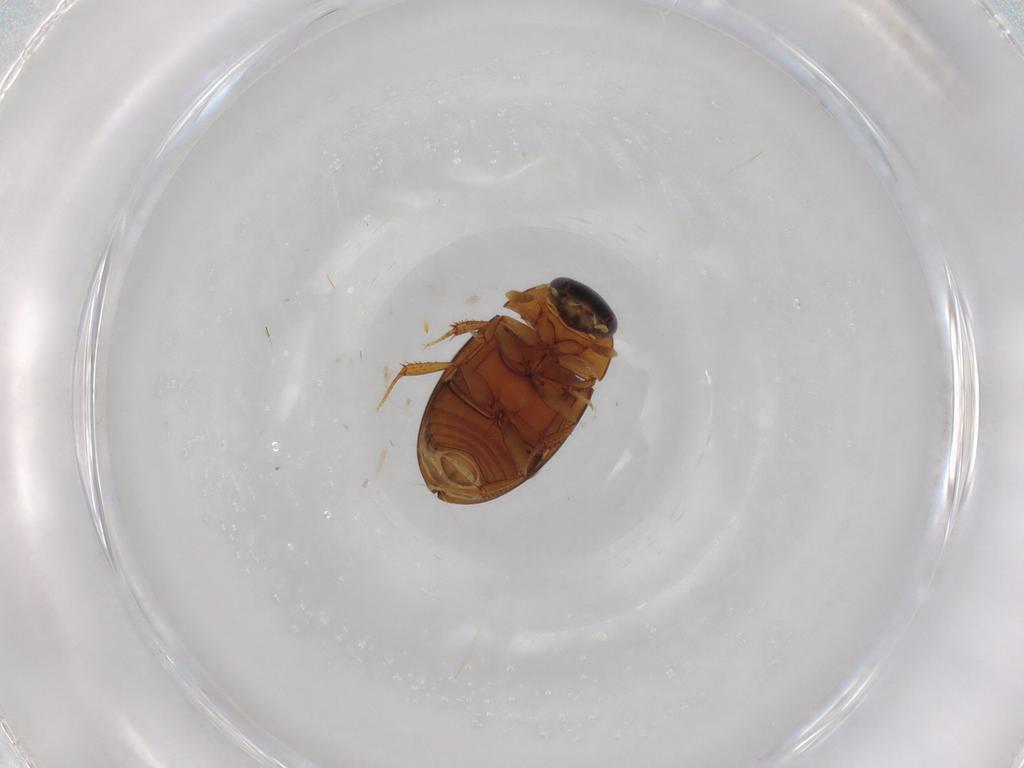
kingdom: Animalia
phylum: Arthropoda
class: Insecta
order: Coleoptera
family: Hydrophilidae
